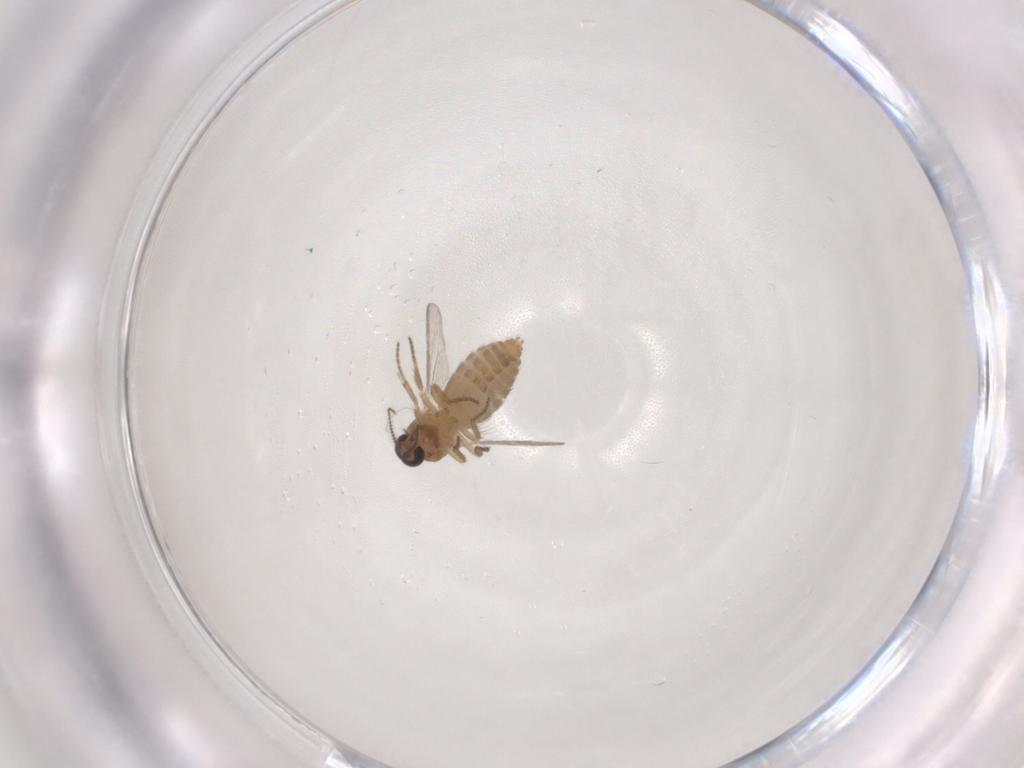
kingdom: Animalia
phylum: Arthropoda
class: Insecta
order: Diptera
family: Ceratopogonidae
